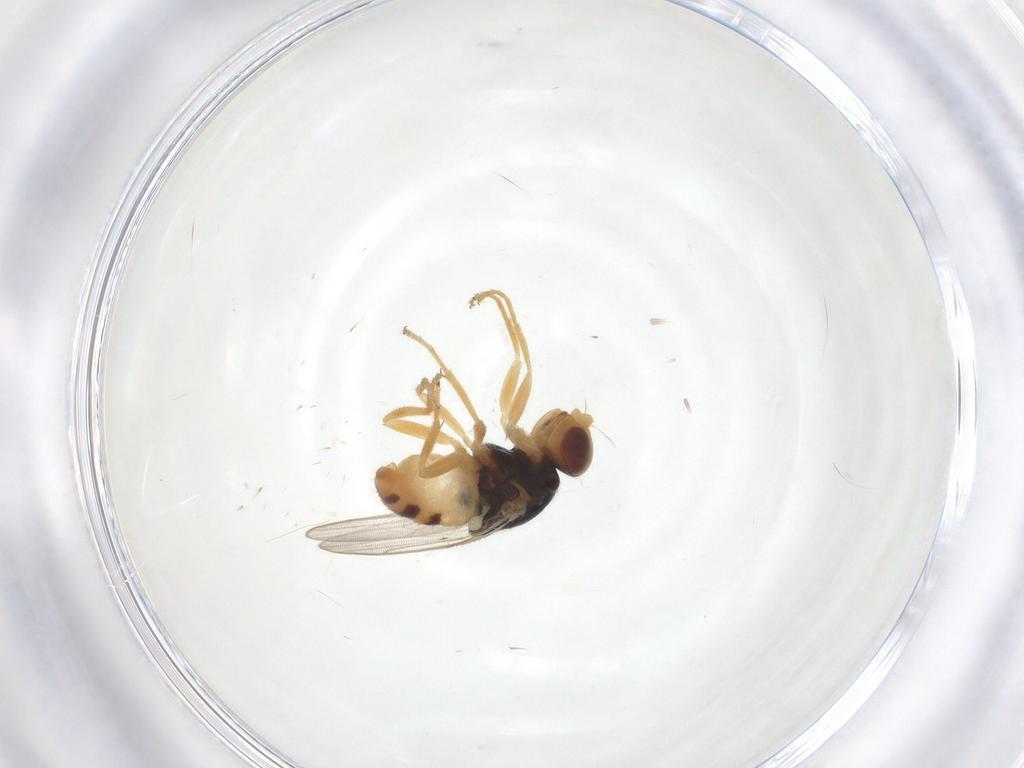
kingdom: Animalia
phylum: Arthropoda
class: Insecta
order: Diptera
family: Chloropidae
